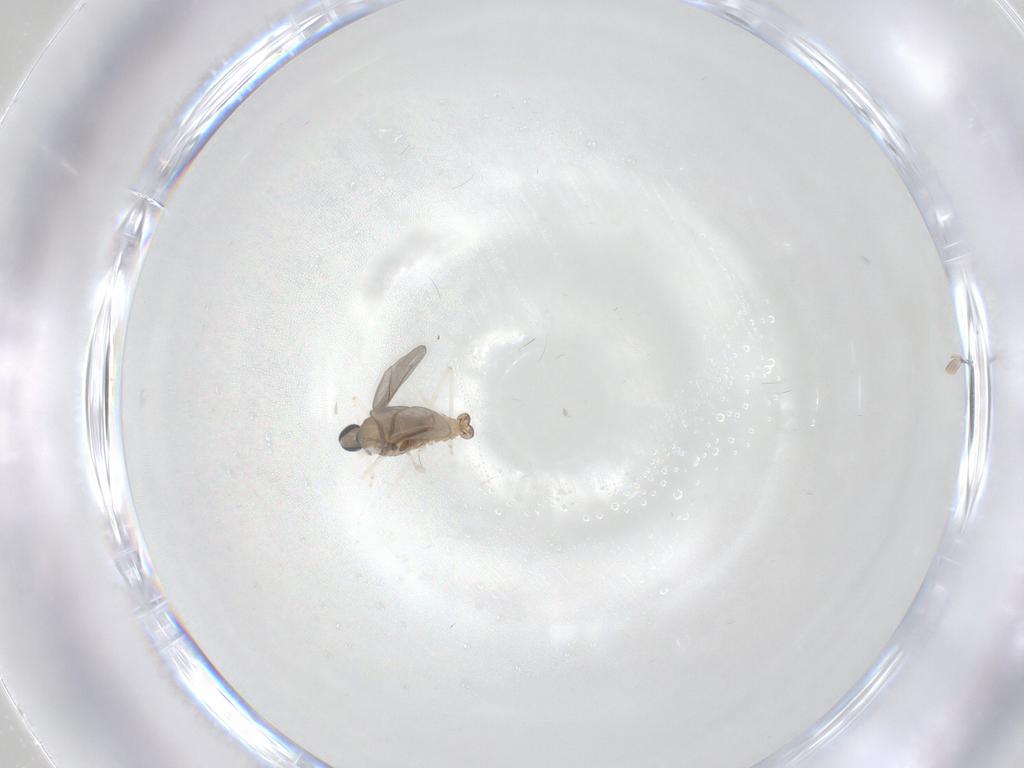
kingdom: Animalia
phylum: Arthropoda
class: Insecta
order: Diptera
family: Cecidomyiidae
